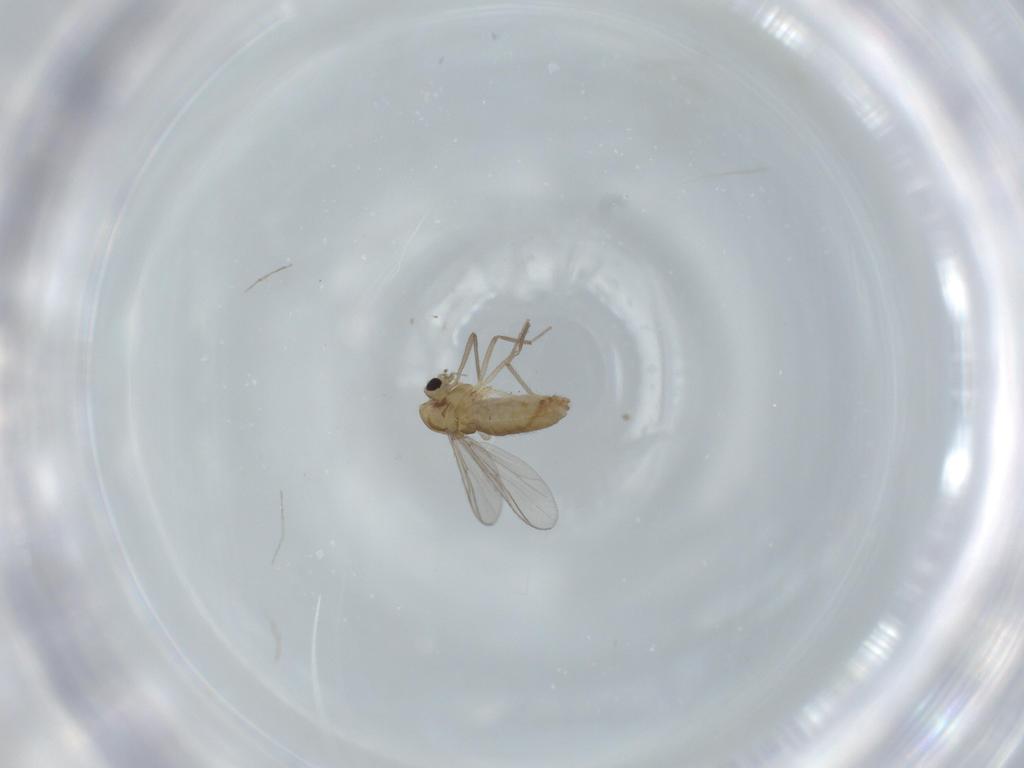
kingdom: Animalia
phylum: Arthropoda
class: Insecta
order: Diptera
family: Chironomidae
